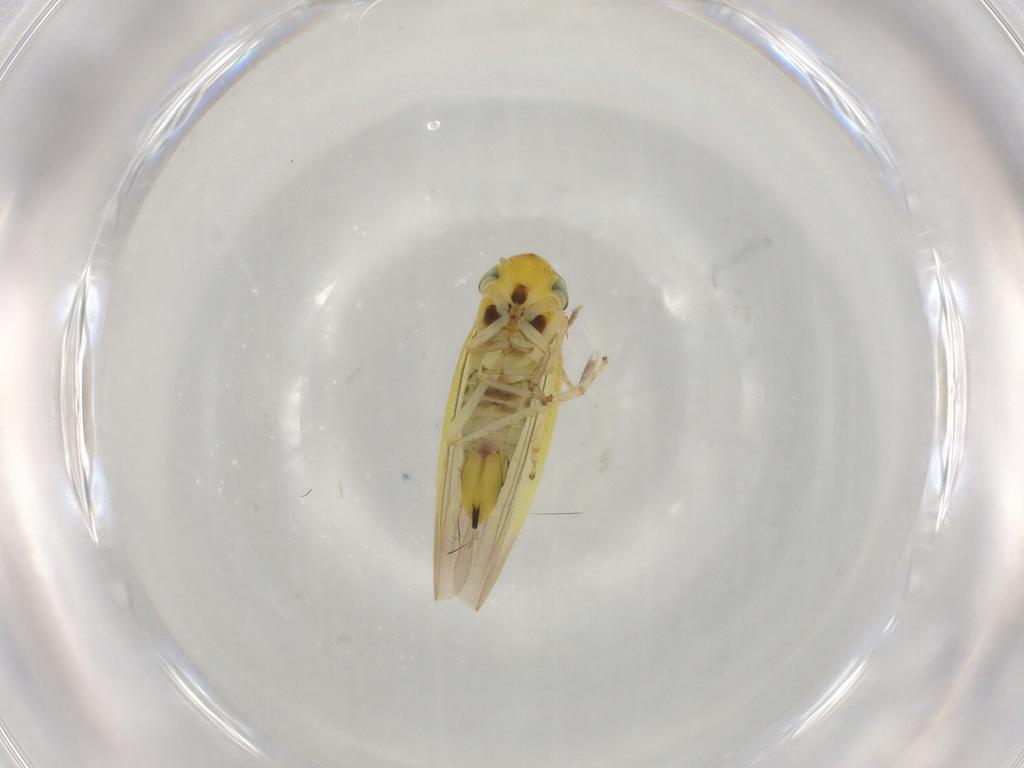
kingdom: Animalia
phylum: Arthropoda
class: Insecta
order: Hemiptera
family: Cicadellidae
